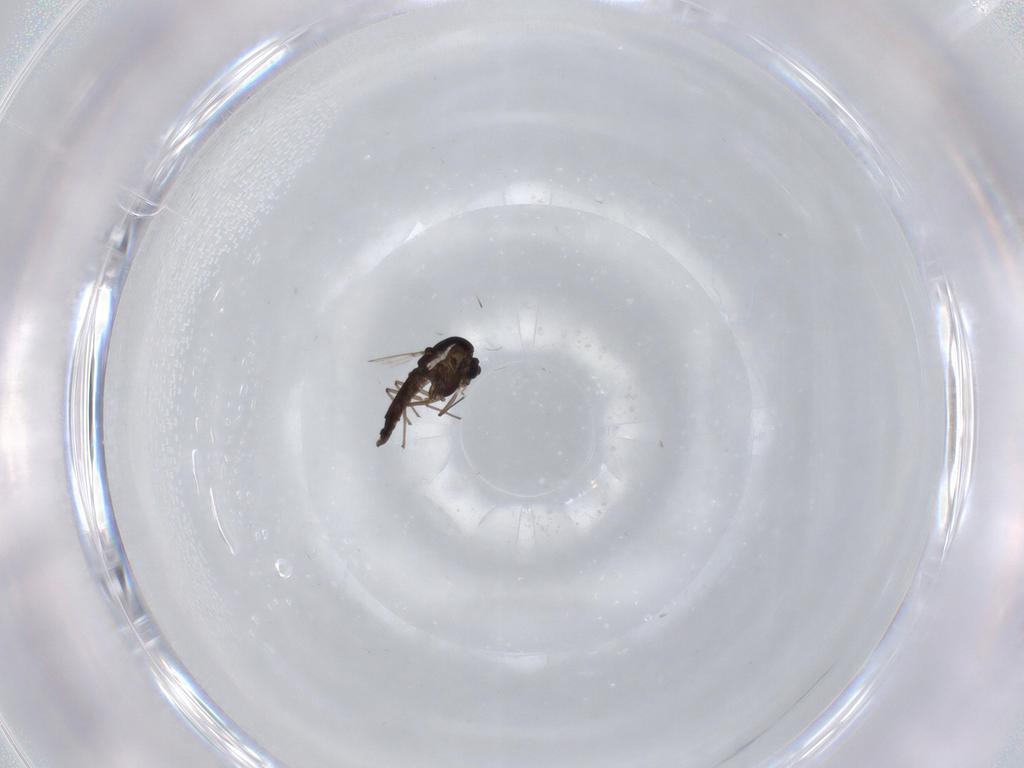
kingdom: Animalia
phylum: Arthropoda
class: Insecta
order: Diptera
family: Chironomidae
